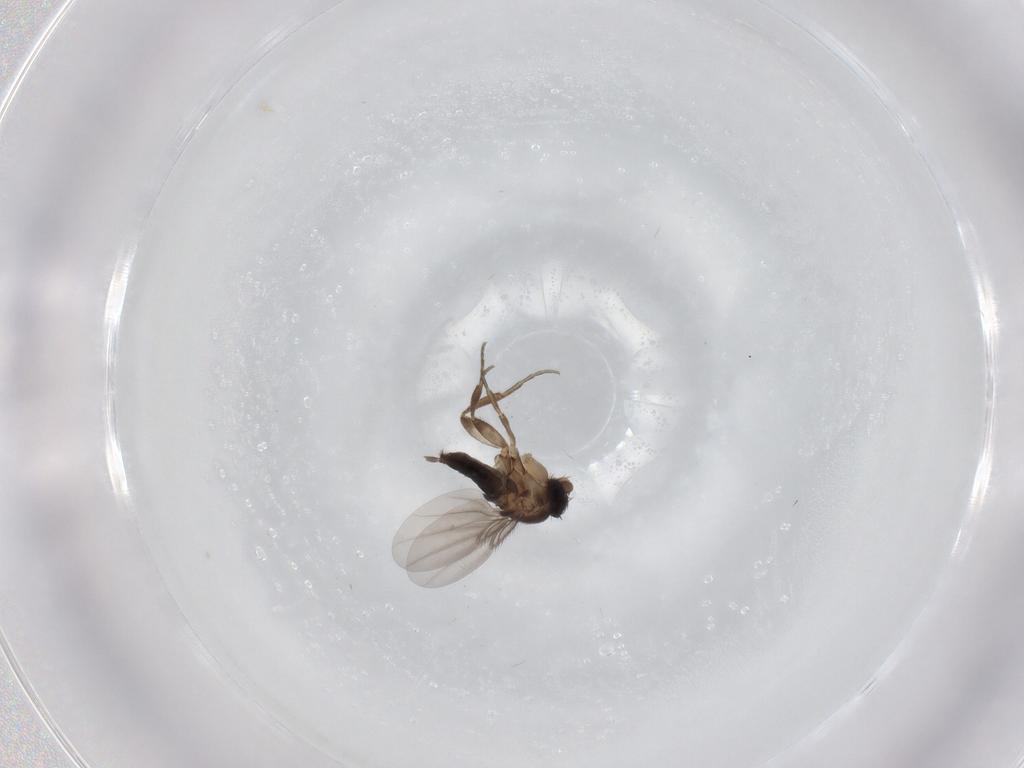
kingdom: Animalia
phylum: Arthropoda
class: Insecta
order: Diptera
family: Phoridae
